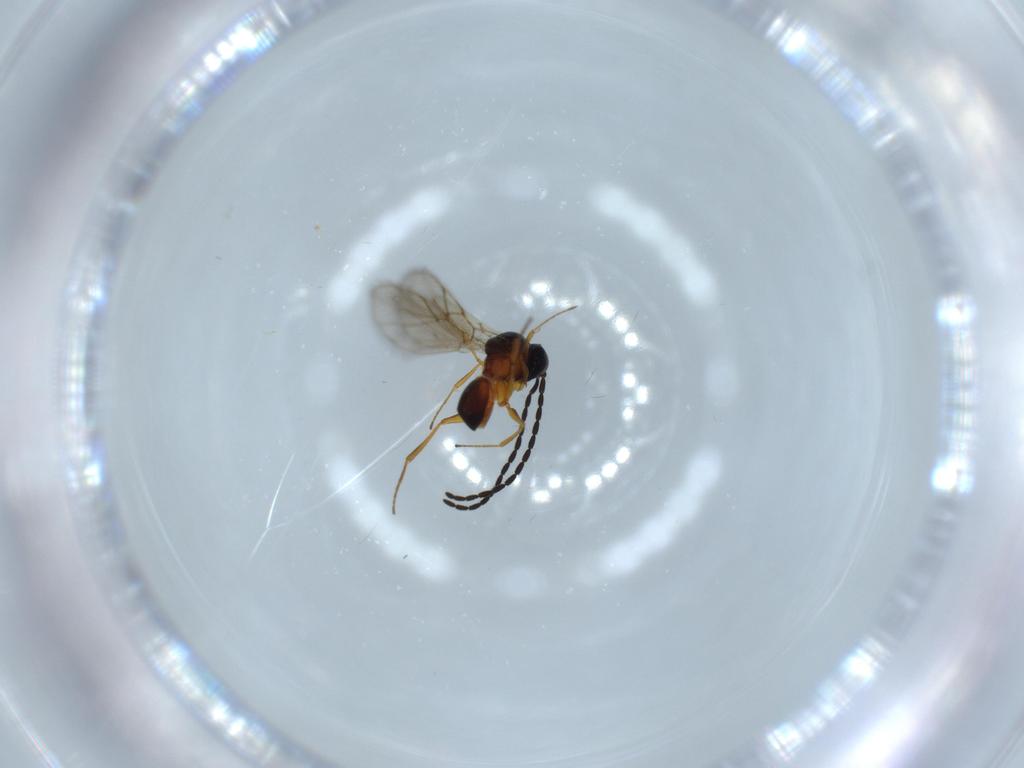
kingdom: Animalia
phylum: Arthropoda
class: Insecta
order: Hymenoptera
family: Figitidae
